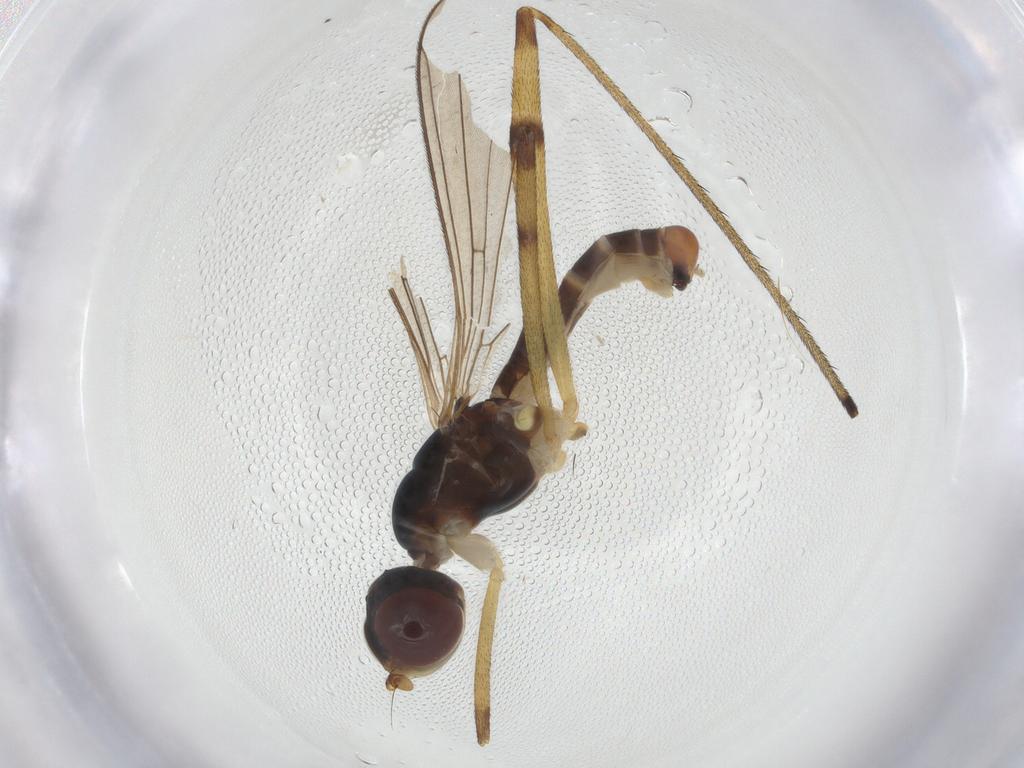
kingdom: Animalia
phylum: Arthropoda
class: Insecta
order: Diptera
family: Micropezidae
